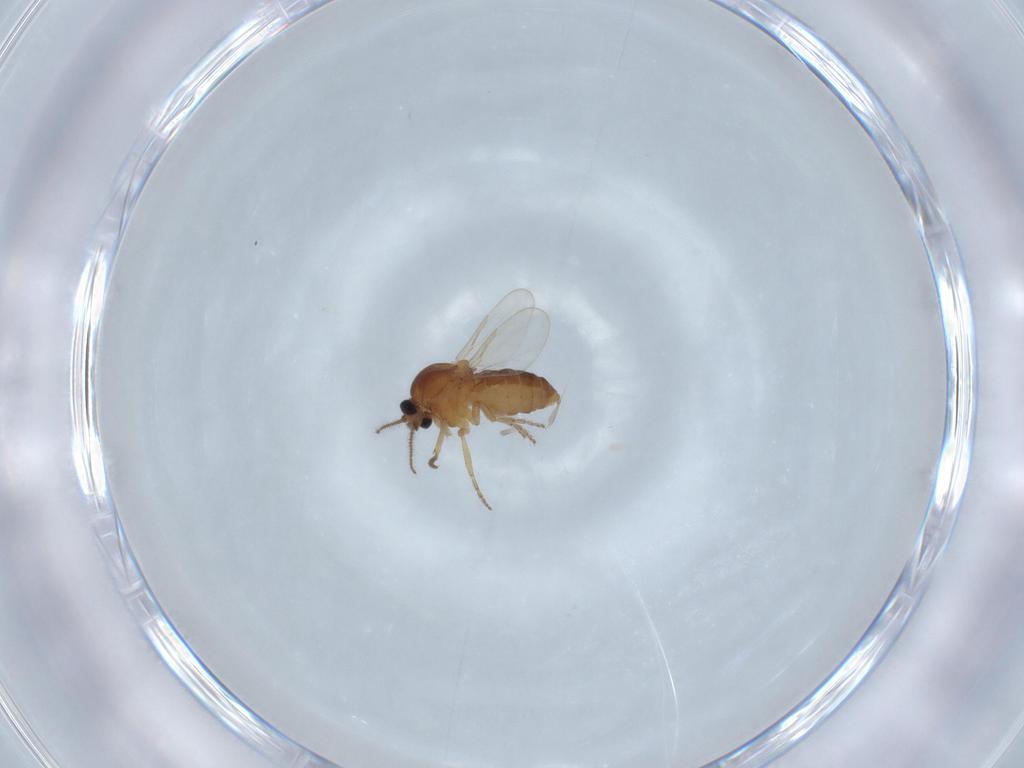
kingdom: Animalia
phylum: Arthropoda
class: Insecta
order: Diptera
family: Ceratopogonidae
